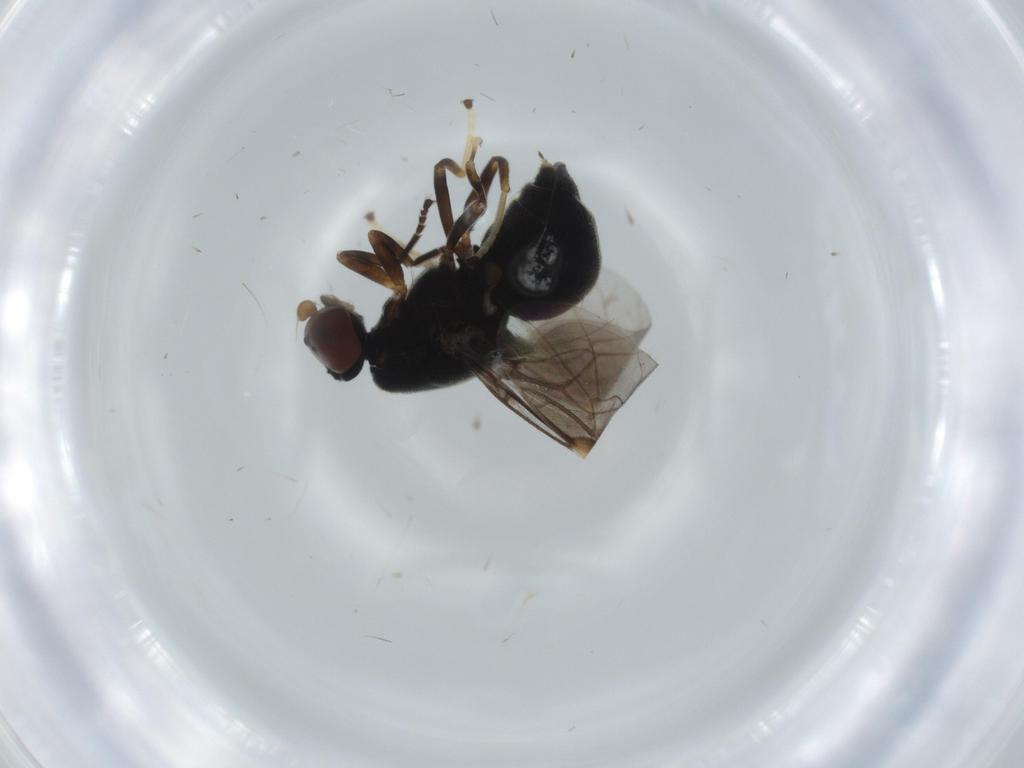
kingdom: Animalia
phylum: Arthropoda
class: Insecta
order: Diptera
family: Stratiomyidae
